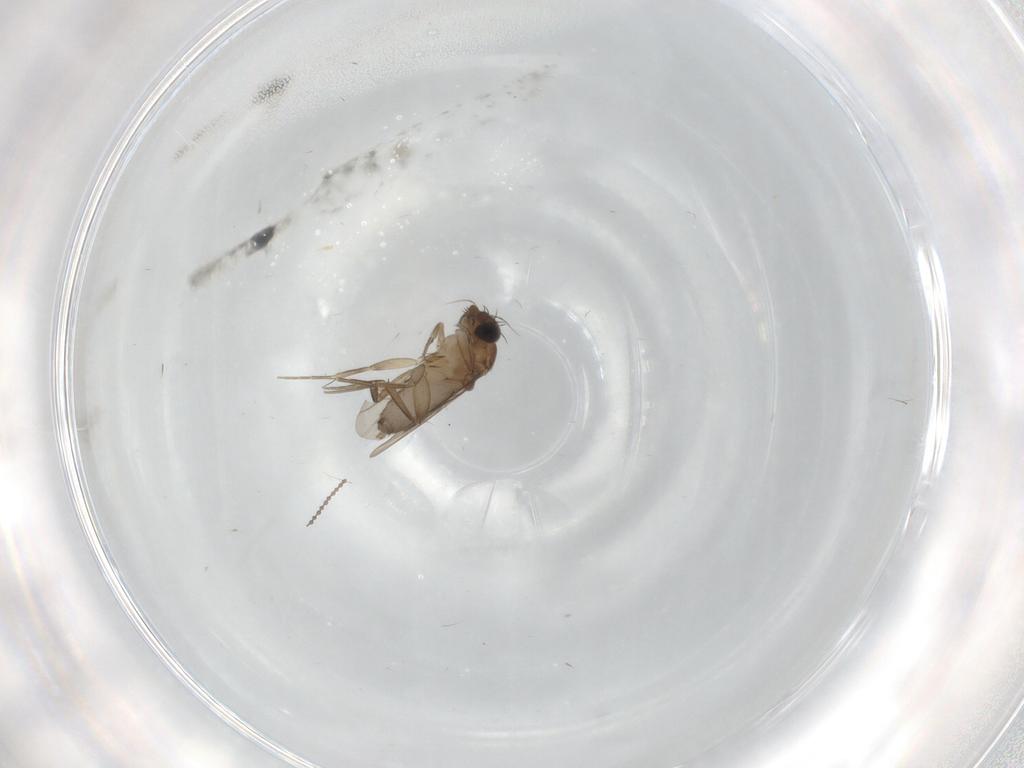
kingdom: Animalia
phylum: Arthropoda
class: Insecta
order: Diptera
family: Phoridae
